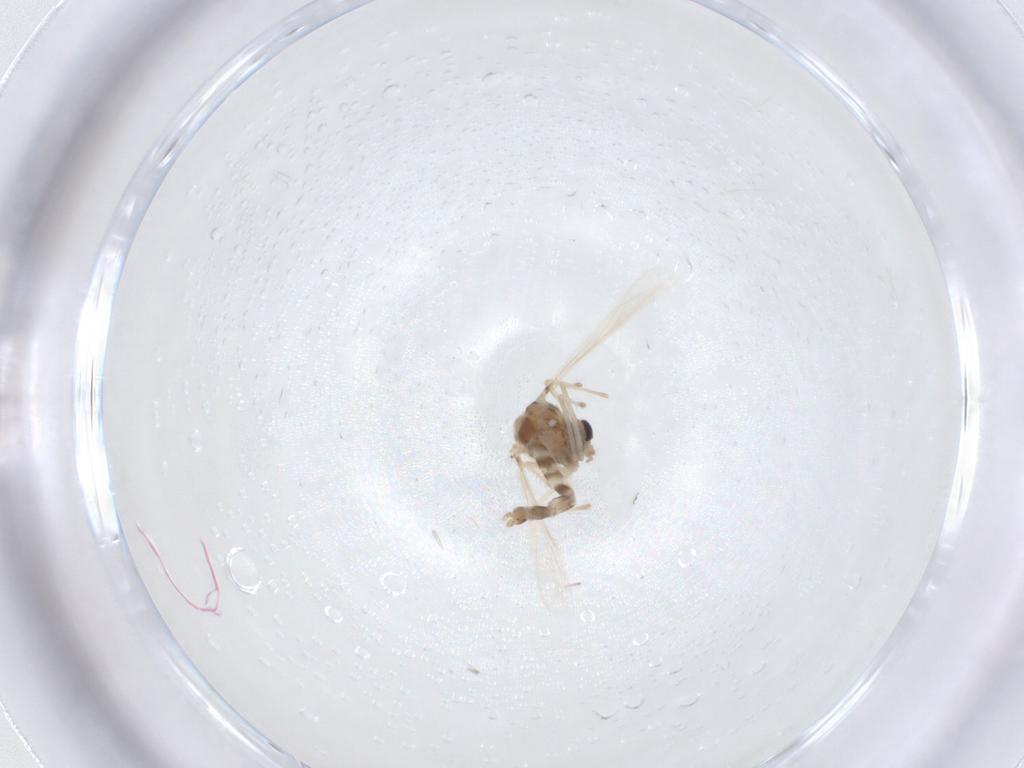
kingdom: Animalia
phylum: Arthropoda
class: Insecta
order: Diptera
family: Chironomidae
